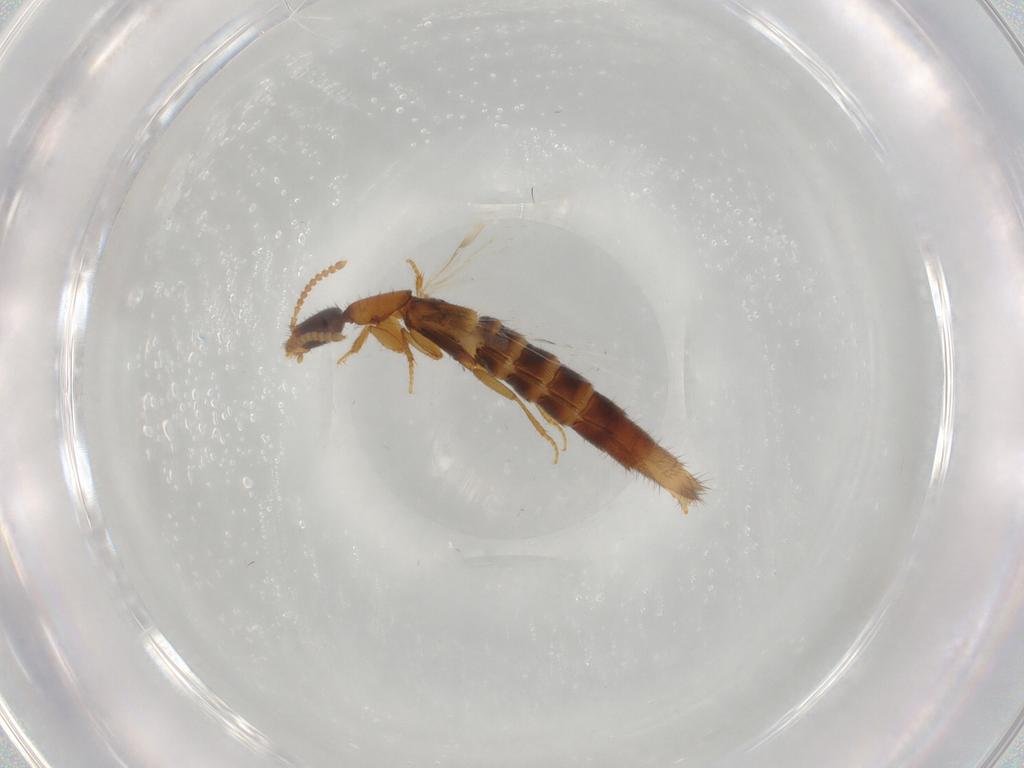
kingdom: Animalia
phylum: Arthropoda
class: Insecta
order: Coleoptera
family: Staphylinidae
